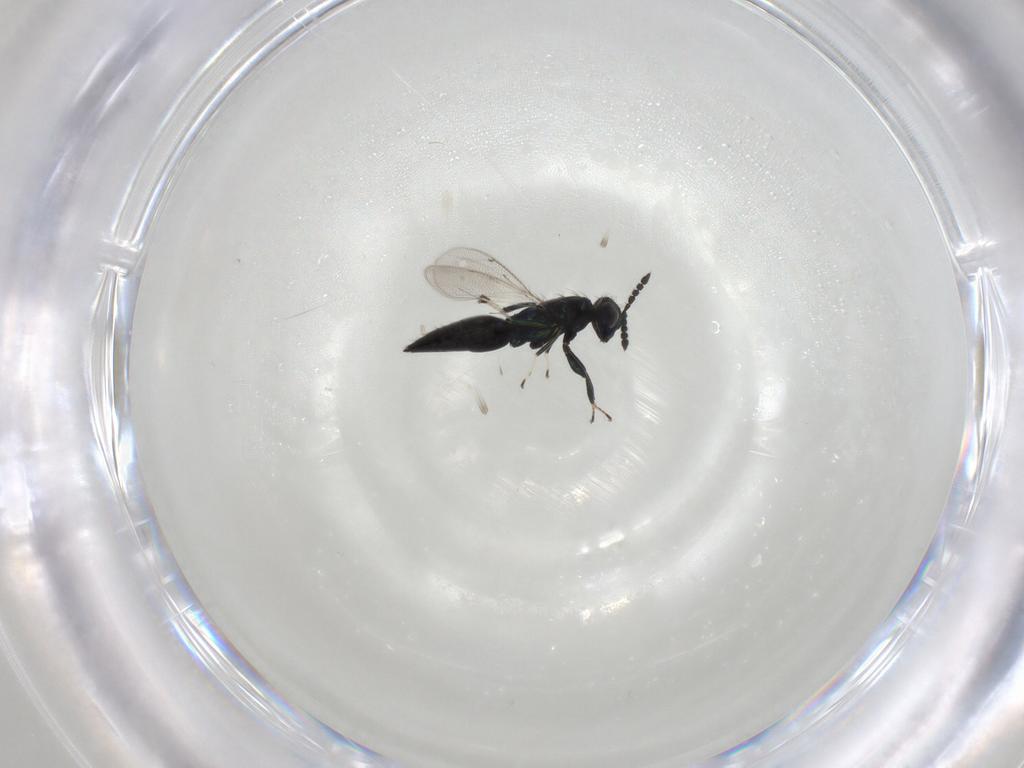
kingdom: Animalia
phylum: Arthropoda
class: Insecta
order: Hymenoptera
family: Eulophidae
